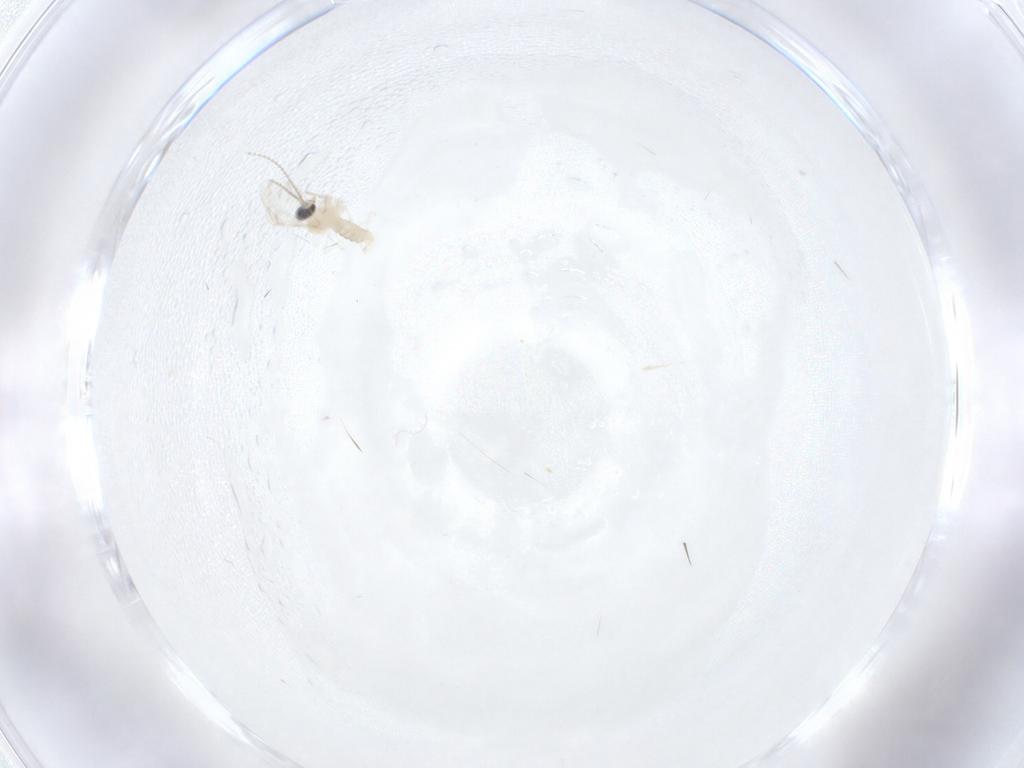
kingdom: Animalia
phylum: Arthropoda
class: Insecta
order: Diptera
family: Cecidomyiidae
